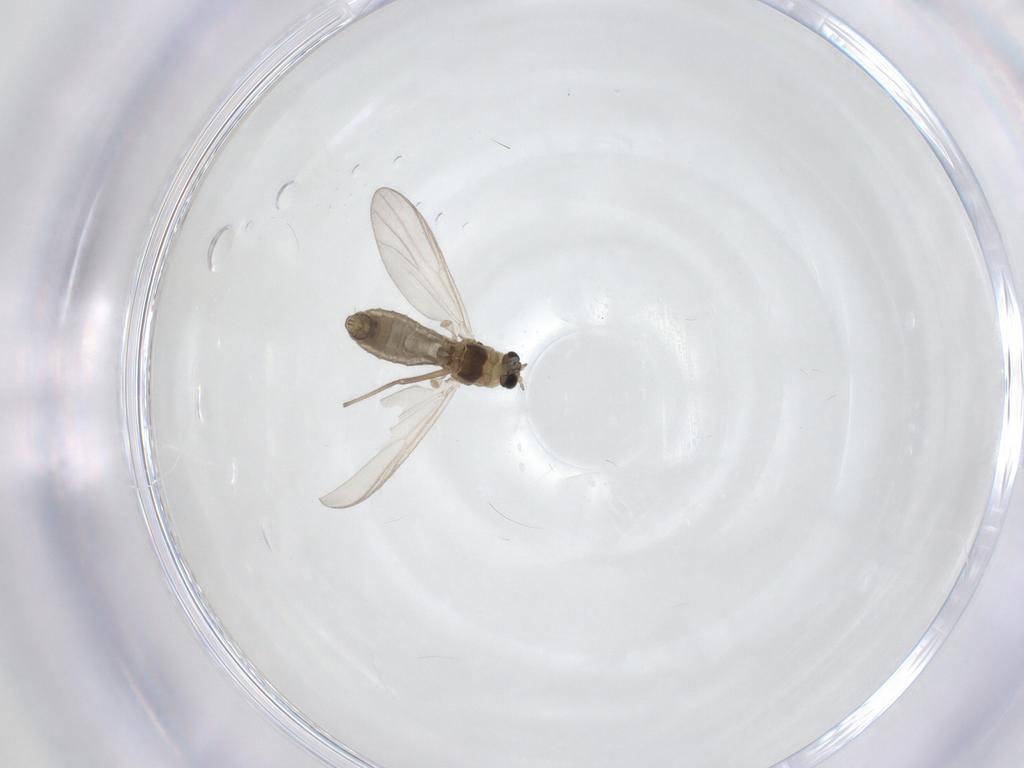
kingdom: Animalia
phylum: Arthropoda
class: Insecta
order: Diptera
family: Chironomidae
